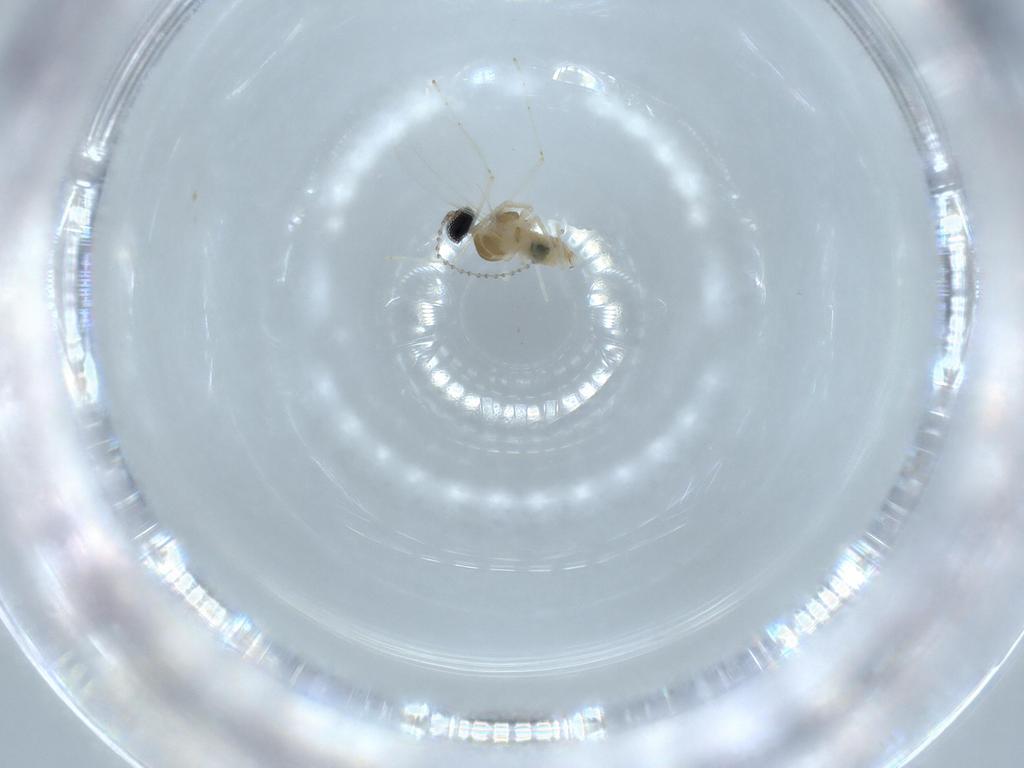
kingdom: Animalia
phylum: Arthropoda
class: Insecta
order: Diptera
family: Cecidomyiidae
